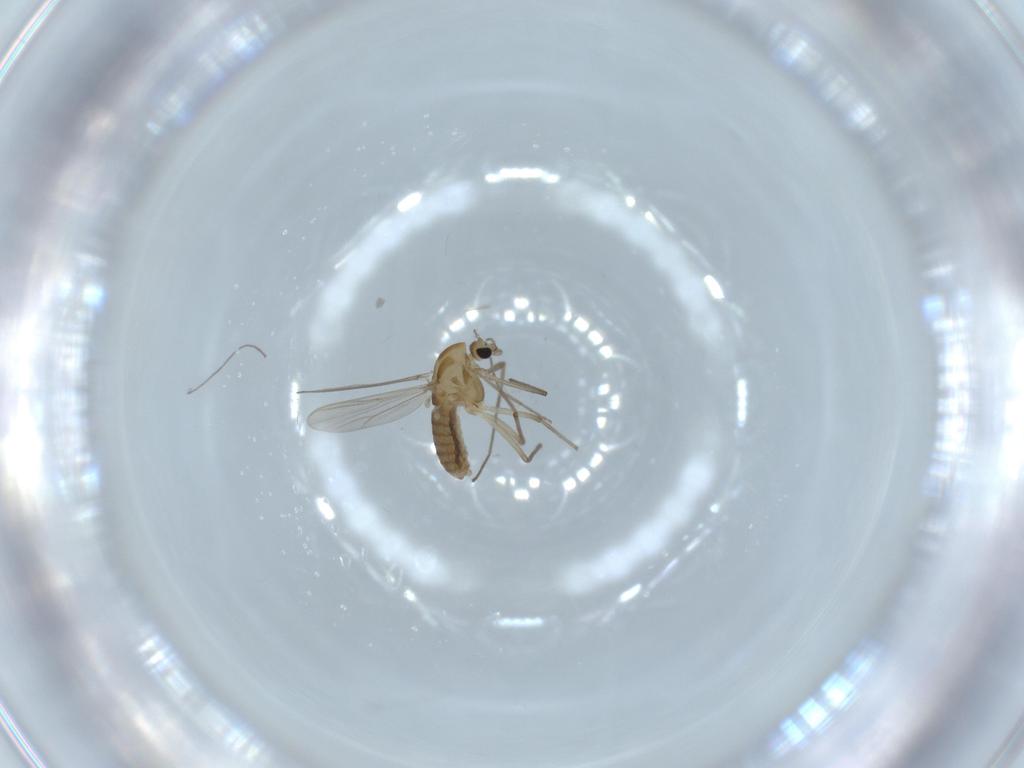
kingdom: Animalia
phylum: Arthropoda
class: Insecta
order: Diptera
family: Chironomidae
